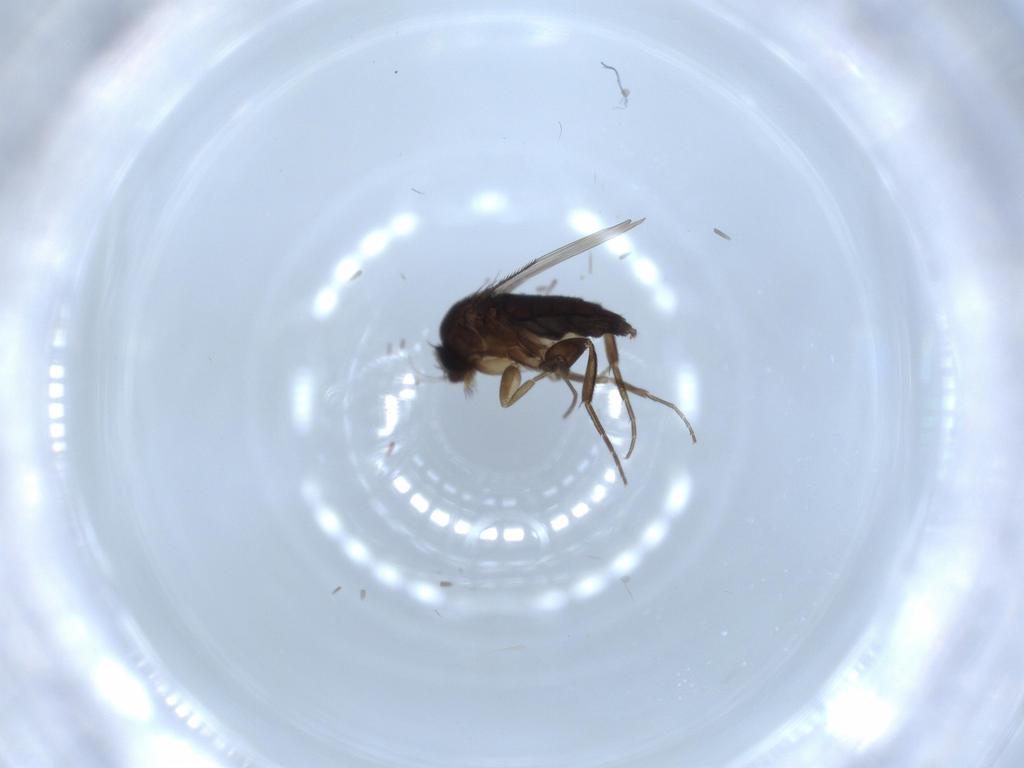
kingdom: Animalia
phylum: Arthropoda
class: Insecta
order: Diptera
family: Phoridae
